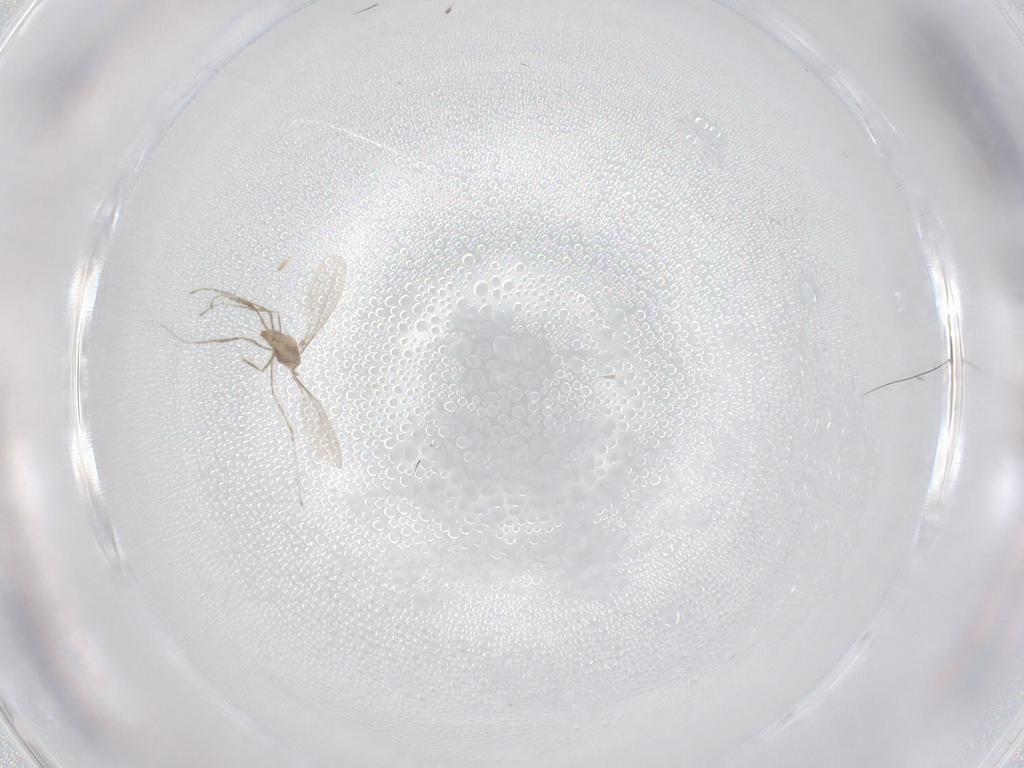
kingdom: Animalia
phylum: Arthropoda
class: Insecta
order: Diptera
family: Cecidomyiidae
